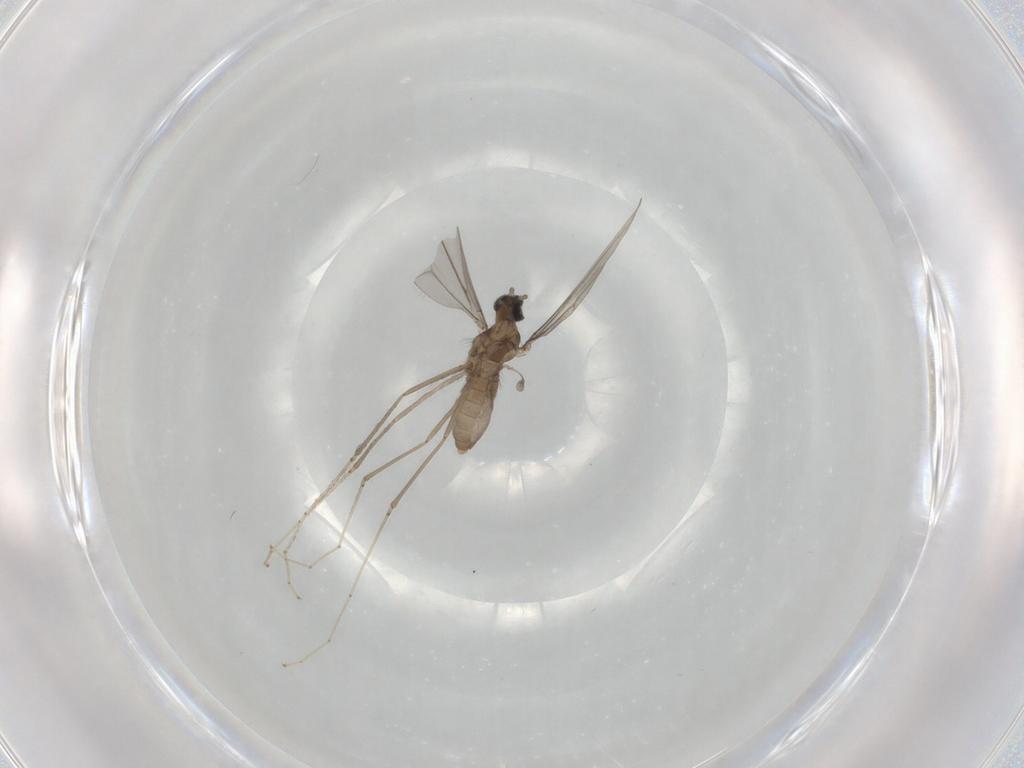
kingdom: Animalia
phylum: Arthropoda
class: Insecta
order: Diptera
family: Cecidomyiidae
